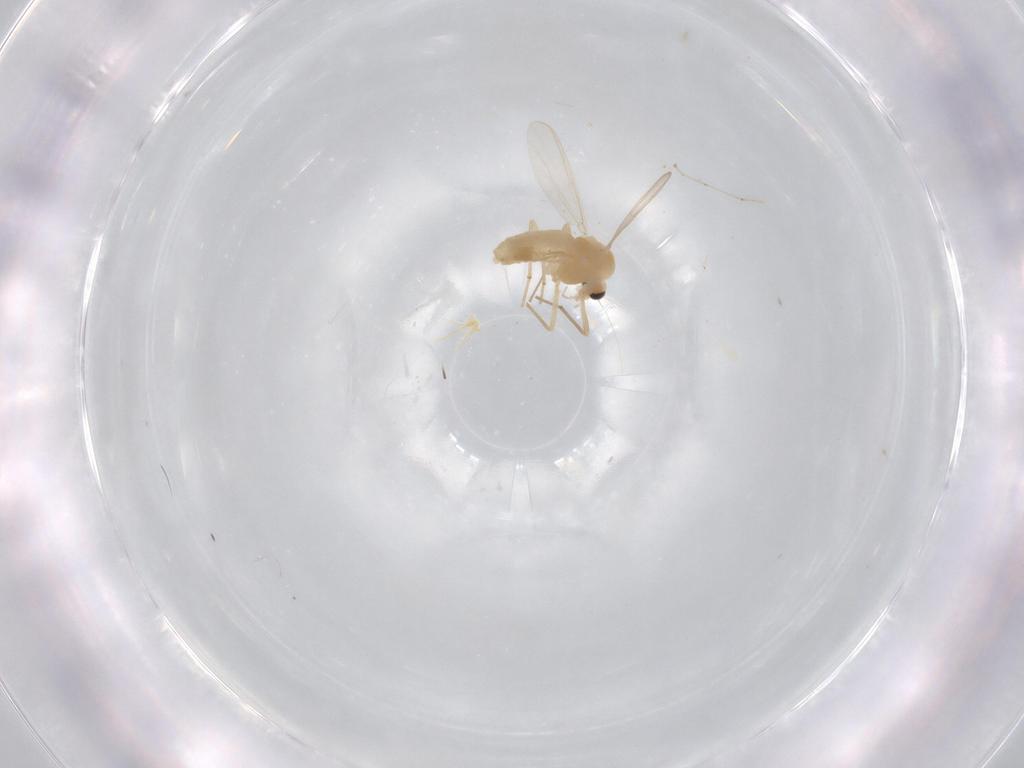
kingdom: Animalia
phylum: Arthropoda
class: Insecta
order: Diptera
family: Cecidomyiidae
